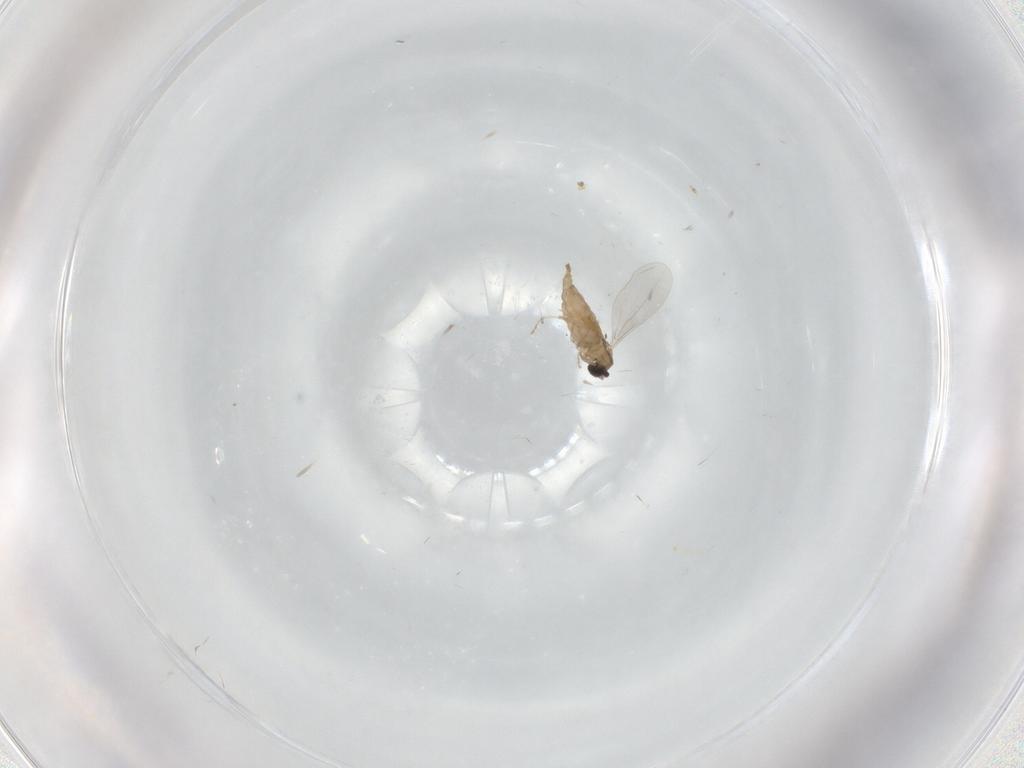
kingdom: Animalia
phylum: Arthropoda
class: Insecta
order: Diptera
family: Cecidomyiidae
